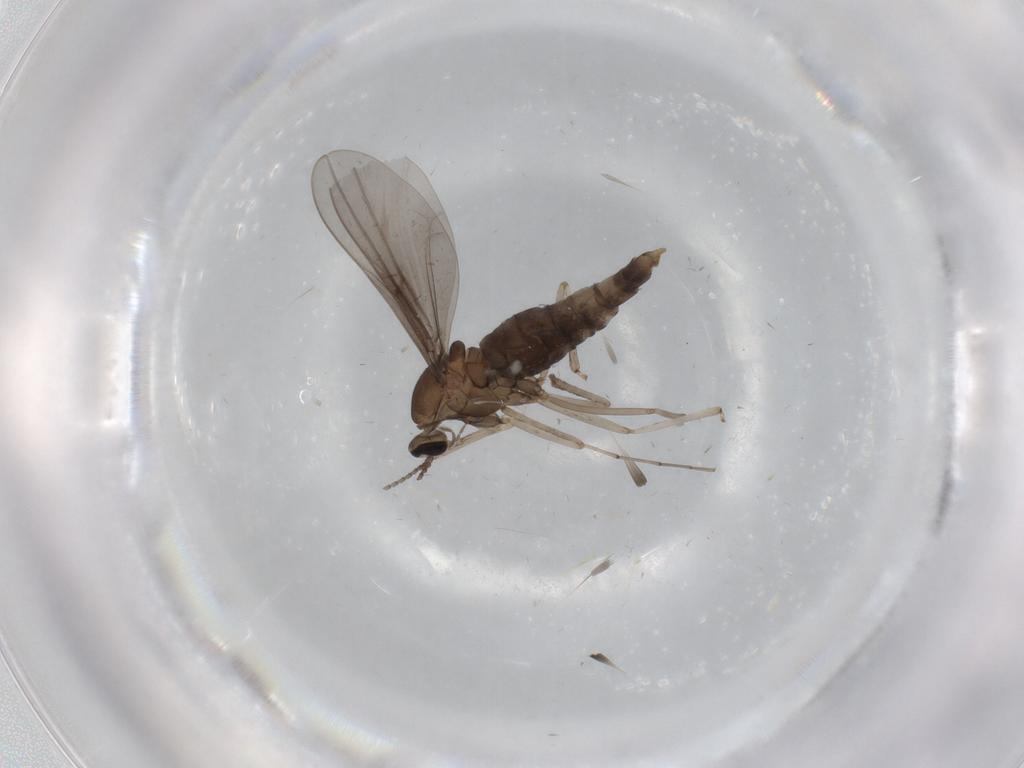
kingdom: Animalia
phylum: Arthropoda
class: Insecta
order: Diptera
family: Cecidomyiidae
